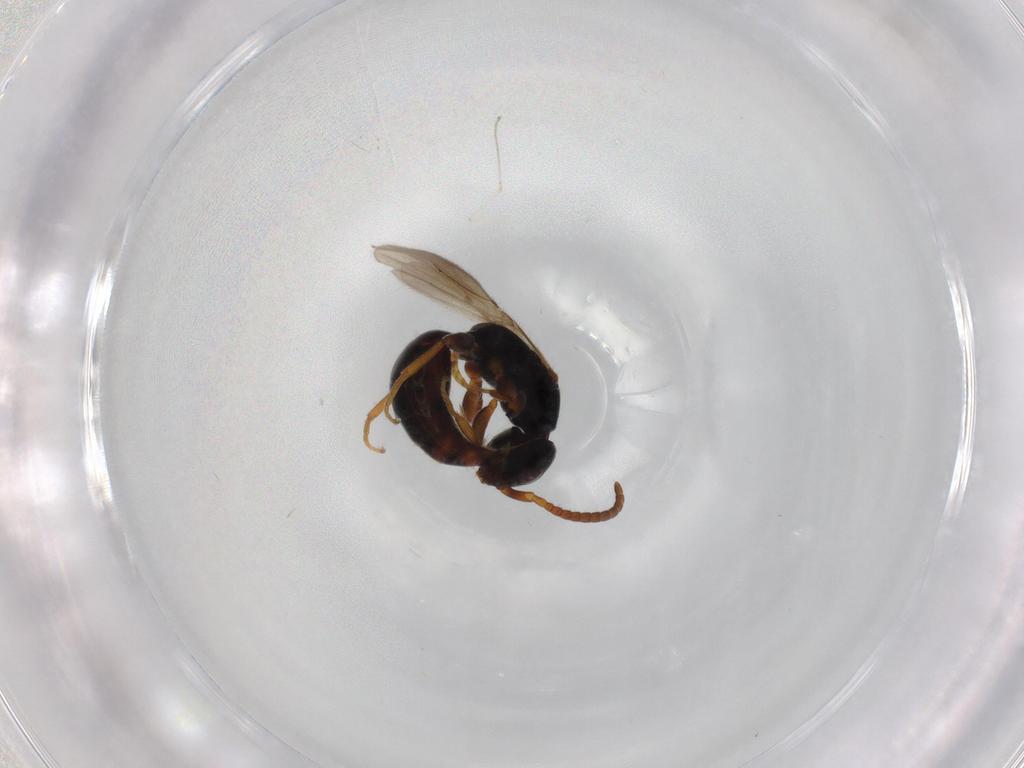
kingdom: Animalia
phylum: Arthropoda
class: Insecta
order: Hymenoptera
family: Bethylidae
